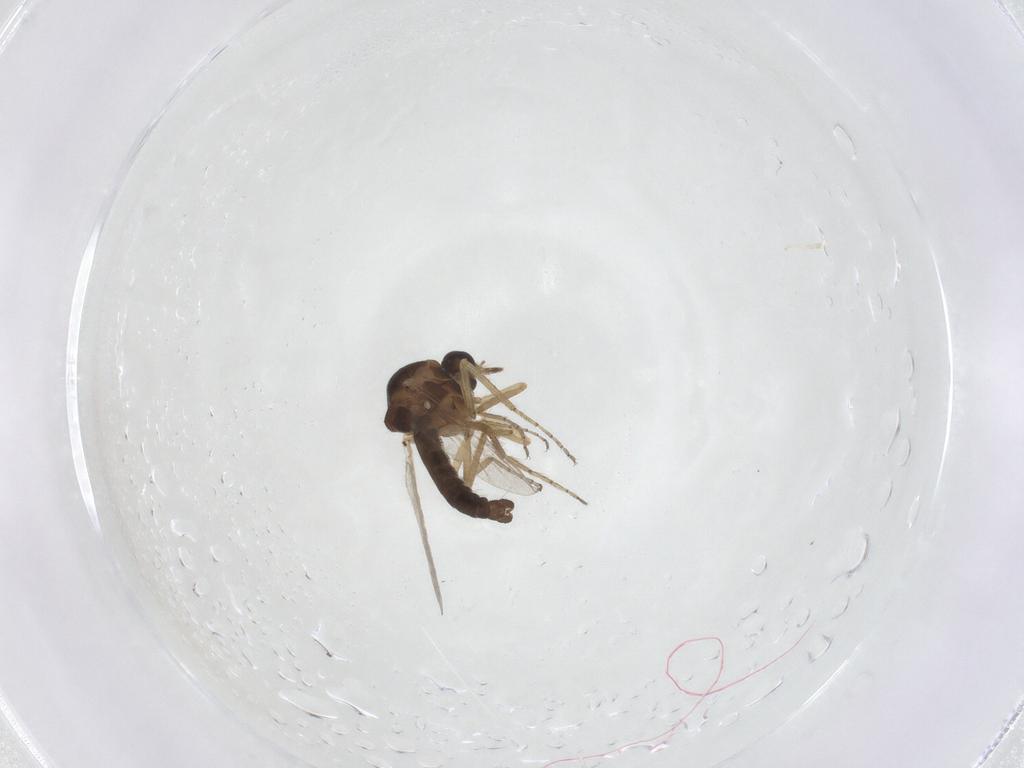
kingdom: Animalia
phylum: Arthropoda
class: Insecta
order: Diptera
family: Ceratopogonidae
